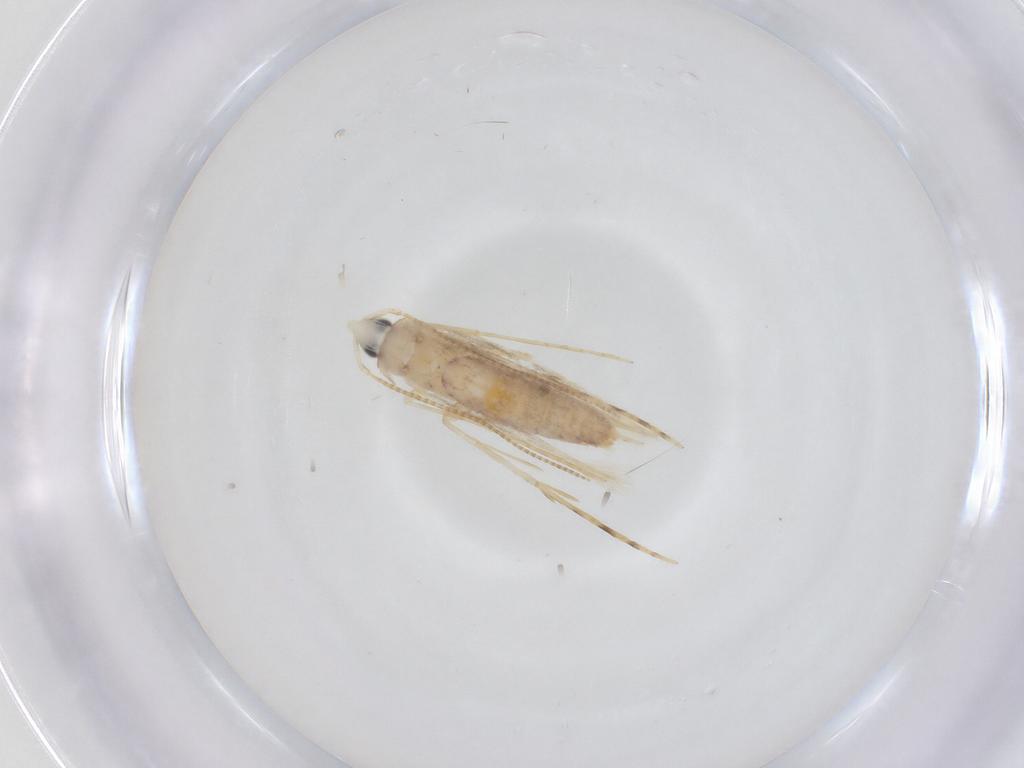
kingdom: Animalia
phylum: Arthropoda
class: Insecta
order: Lepidoptera
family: Tineidae
